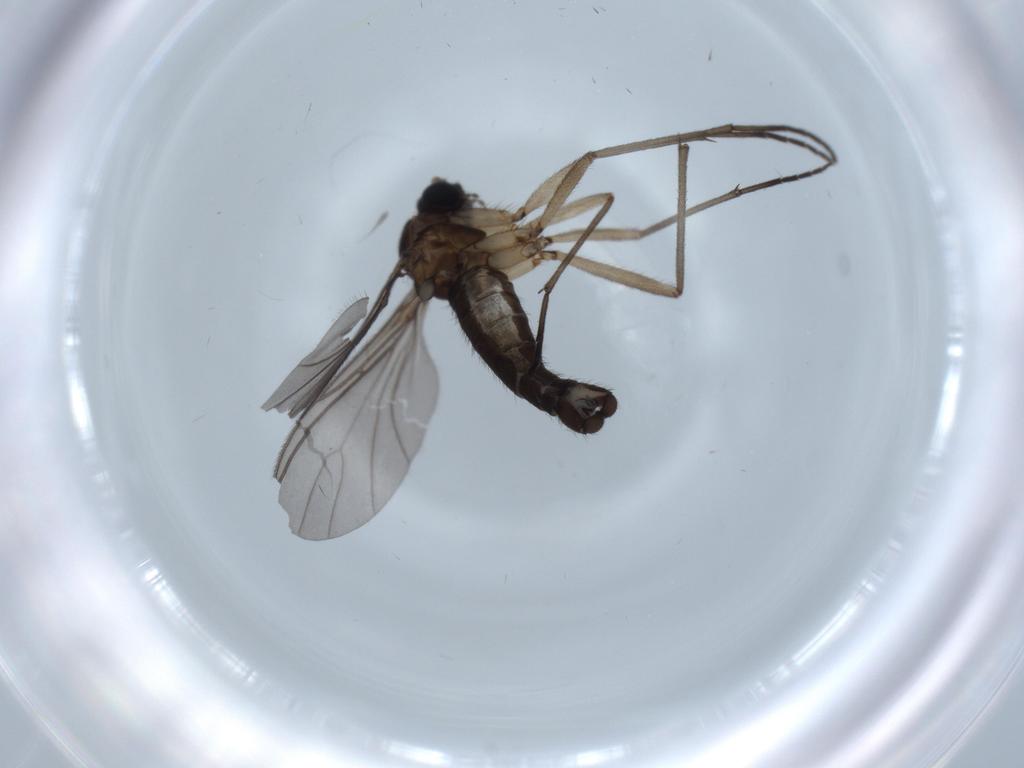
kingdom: Animalia
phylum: Arthropoda
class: Insecta
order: Diptera
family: Sciaridae
